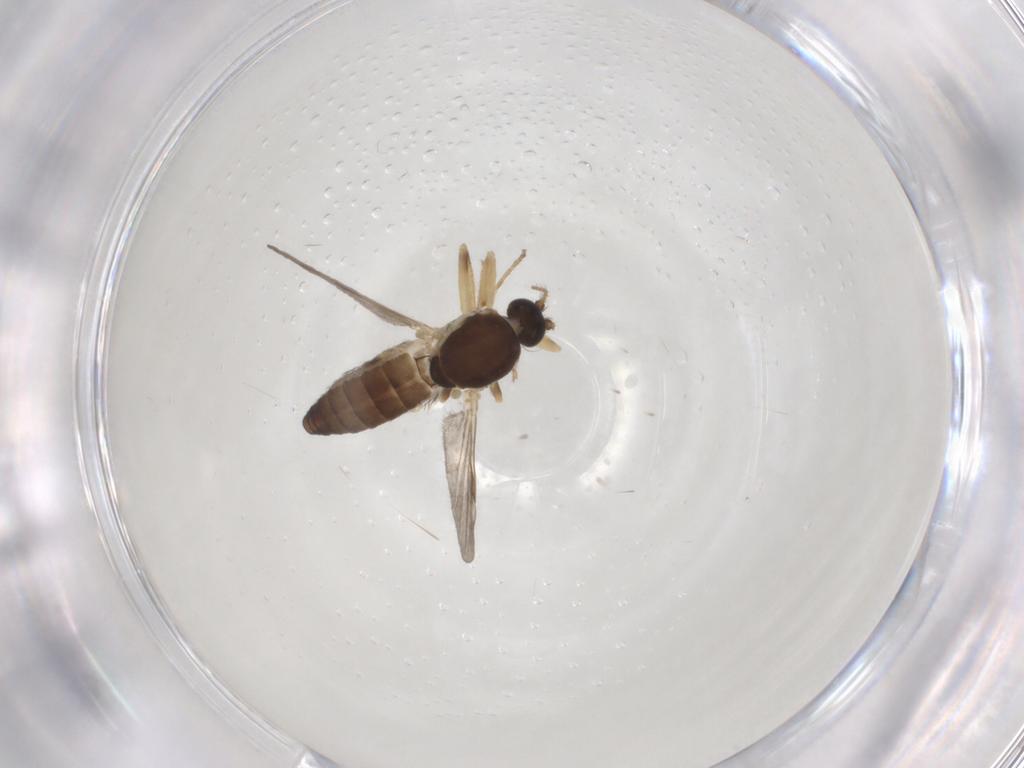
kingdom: Animalia
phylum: Arthropoda
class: Insecta
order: Diptera
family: Ceratopogonidae
